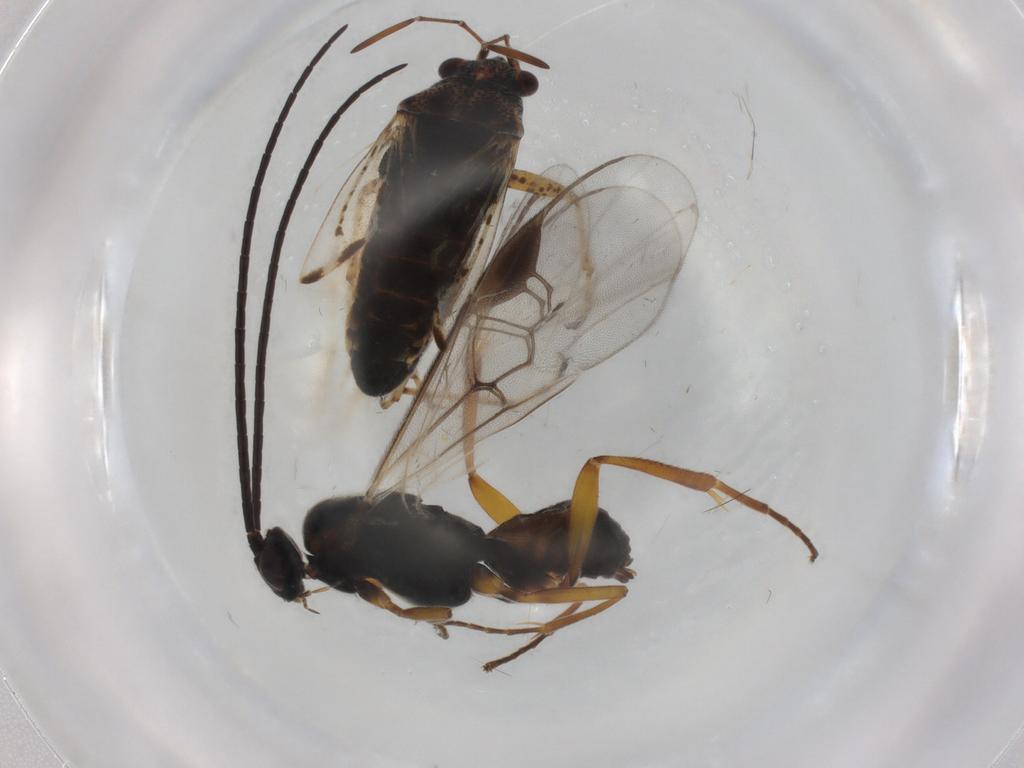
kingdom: Animalia
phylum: Arthropoda
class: Insecta
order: Hymenoptera
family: Braconidae
